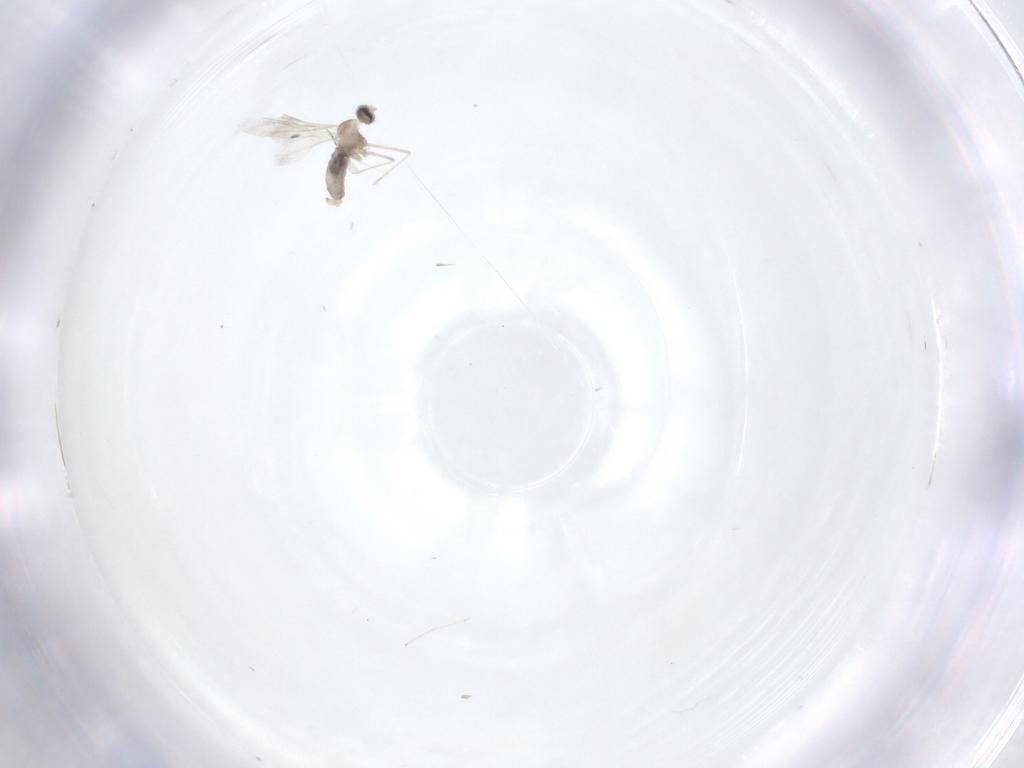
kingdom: Animalia
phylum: Arthropoda
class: Insecta
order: Diptera
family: Cecidomyiidae
